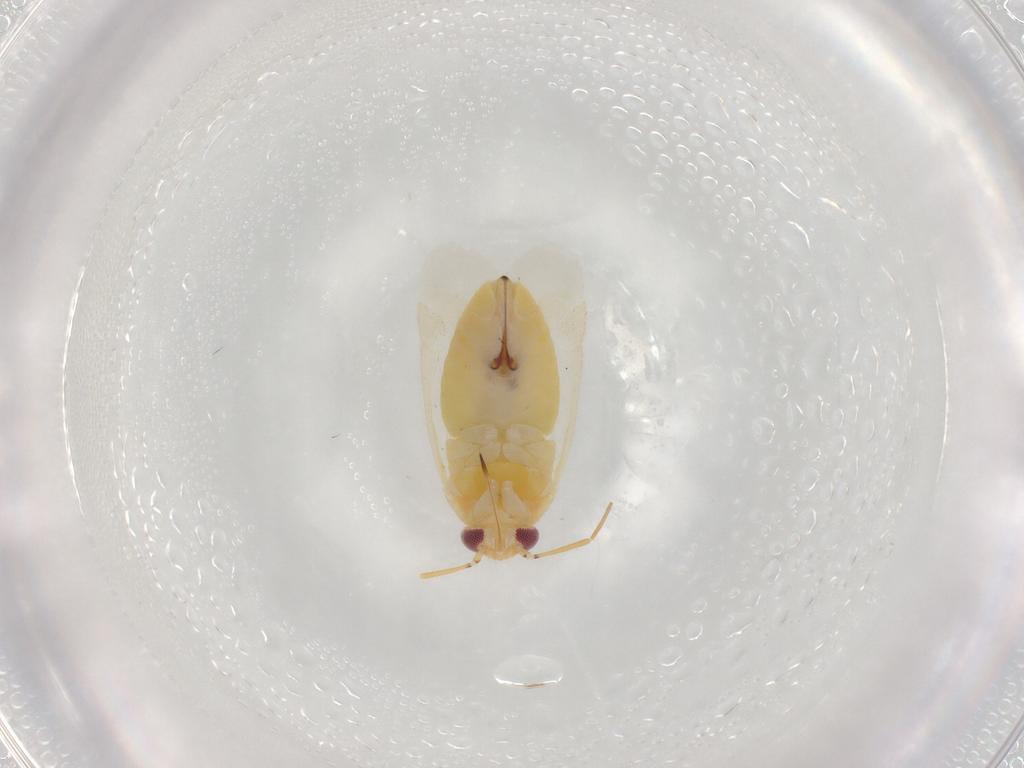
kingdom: Animalia
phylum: Arthropoda
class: Insecta
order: Hemiptera
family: Miridae
